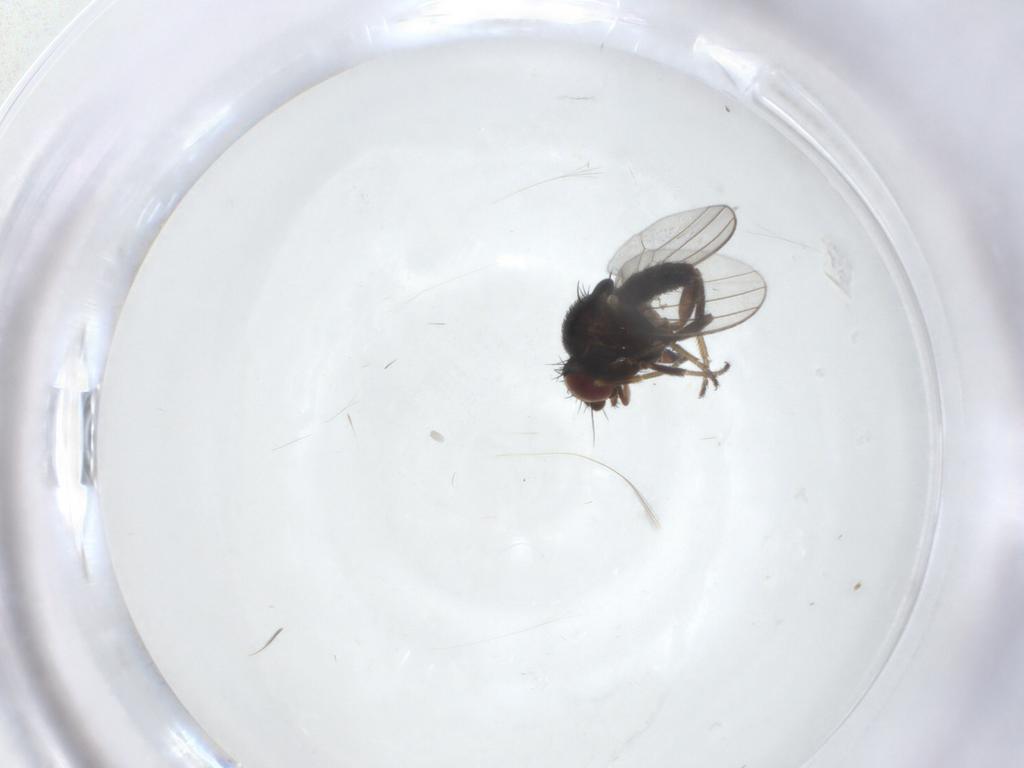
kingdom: Animalia
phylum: Arthropoda
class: Insecta
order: Diptera
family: Milichiidae
